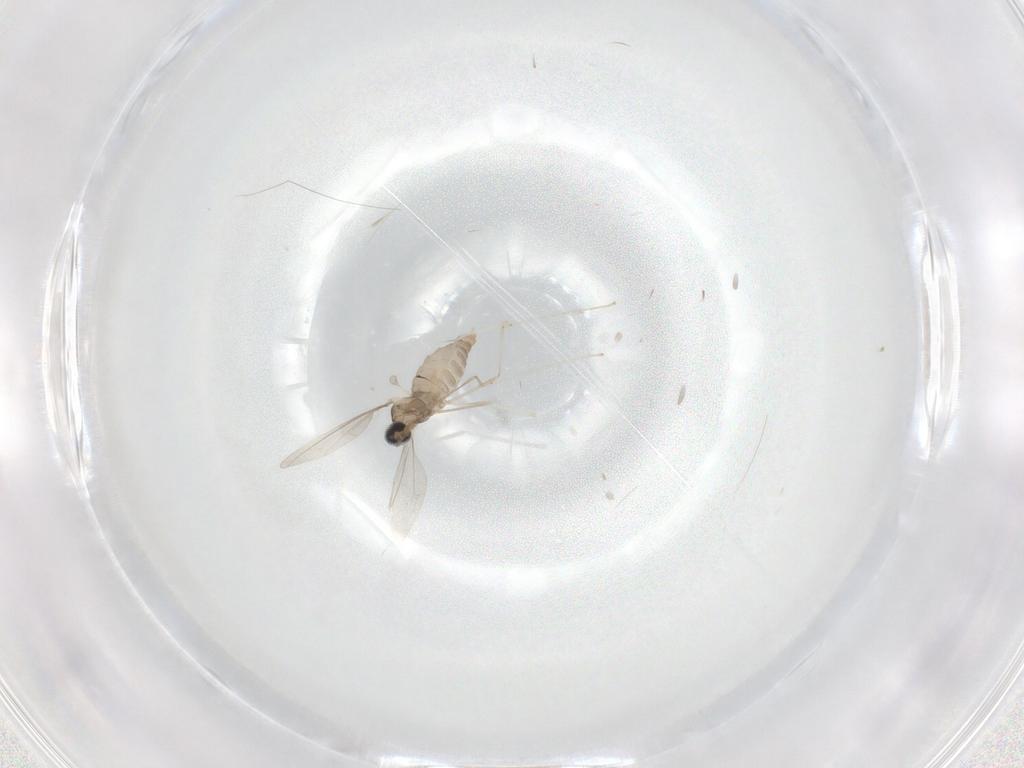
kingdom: Animalia
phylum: Arthropoda
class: Insecta
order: Diptera
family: Cecidomyiidae
